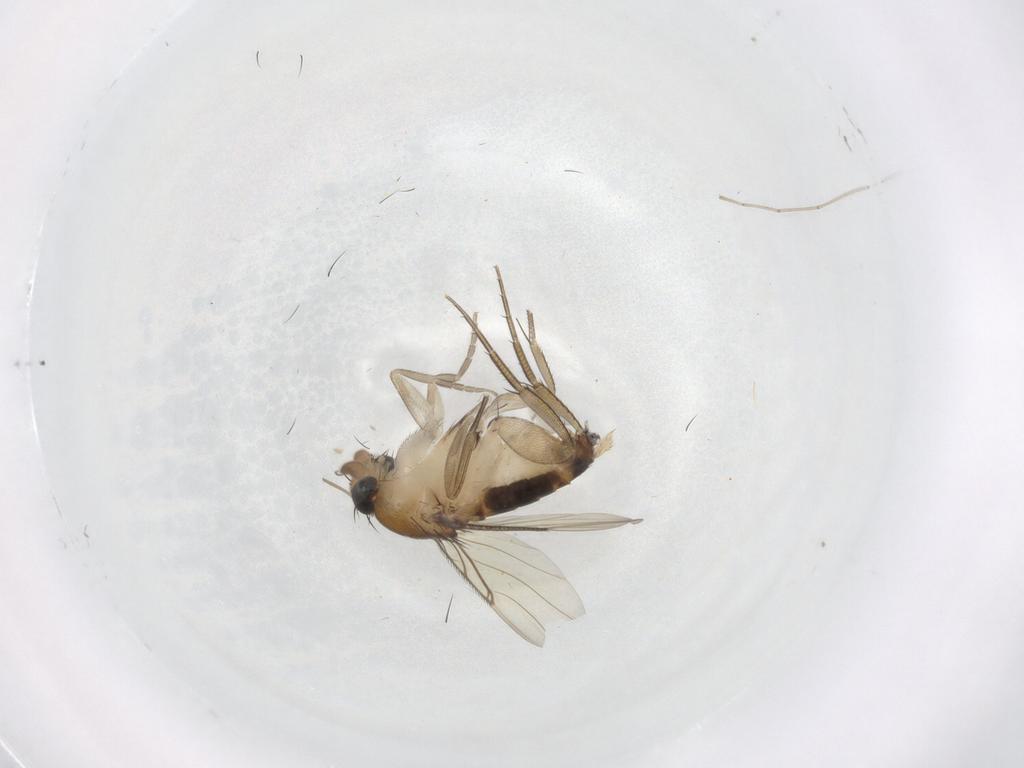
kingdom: Animalia
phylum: Arthropoda
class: Insecta
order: Diptera
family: Phoridae
